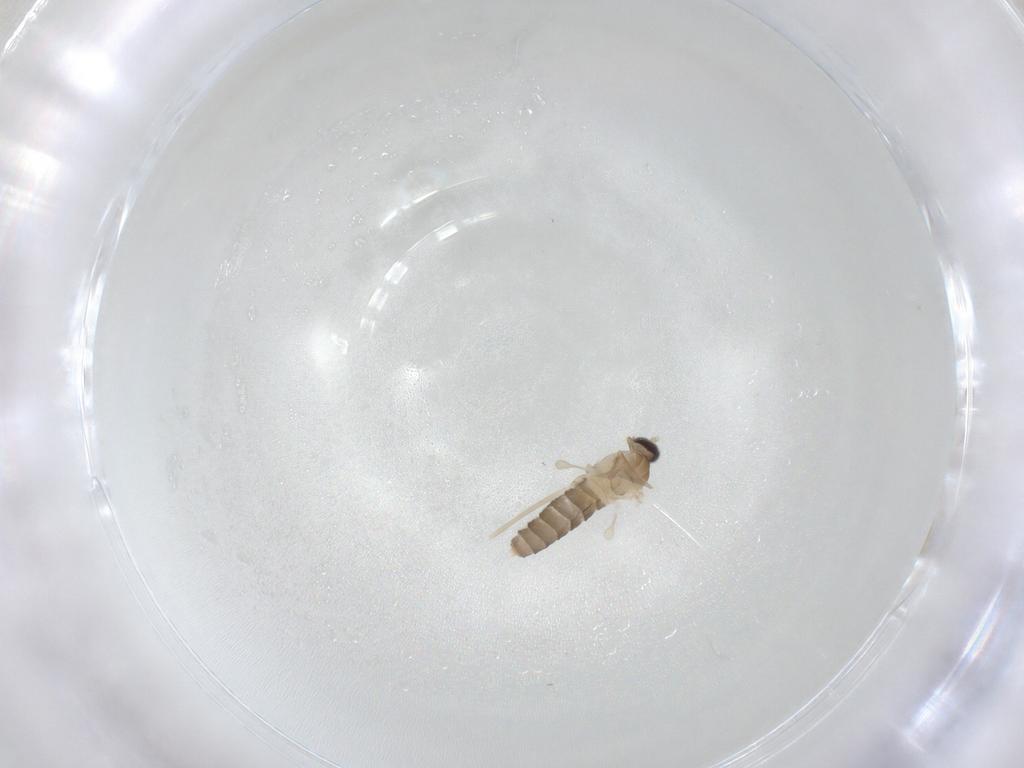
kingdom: Animalia
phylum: Arthropoda
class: Insecta
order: Diptera
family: Cecidomyiidae
